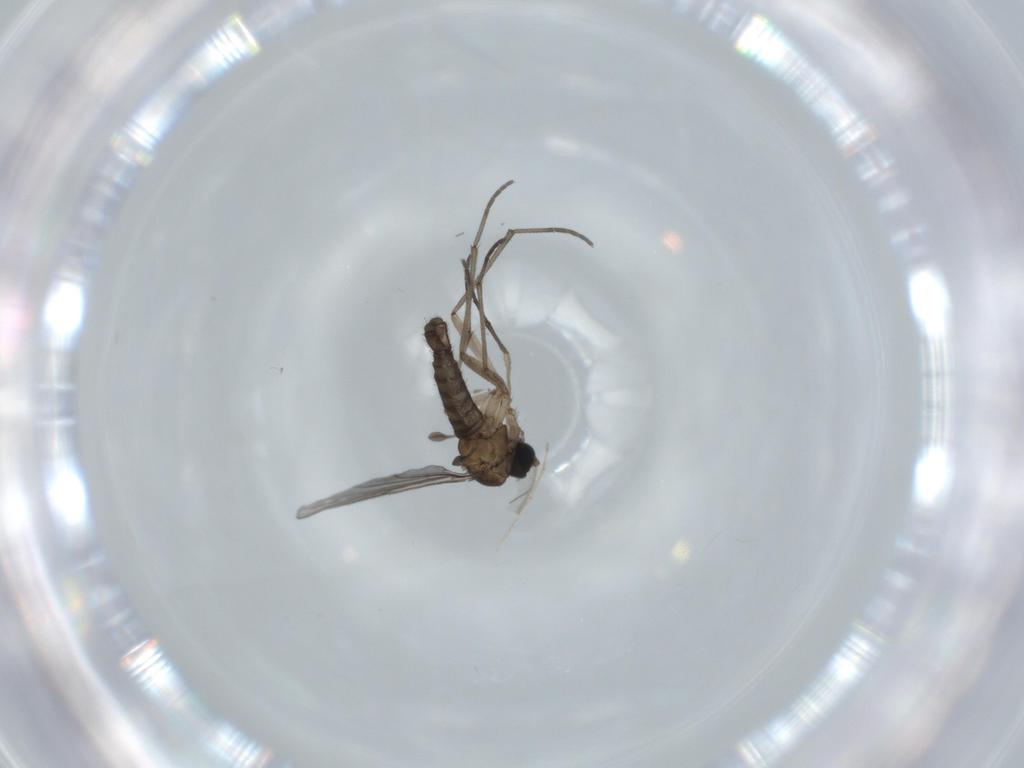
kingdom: Animalia
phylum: Arthropoda
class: Insecta
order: Diptera
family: Sciaridae
